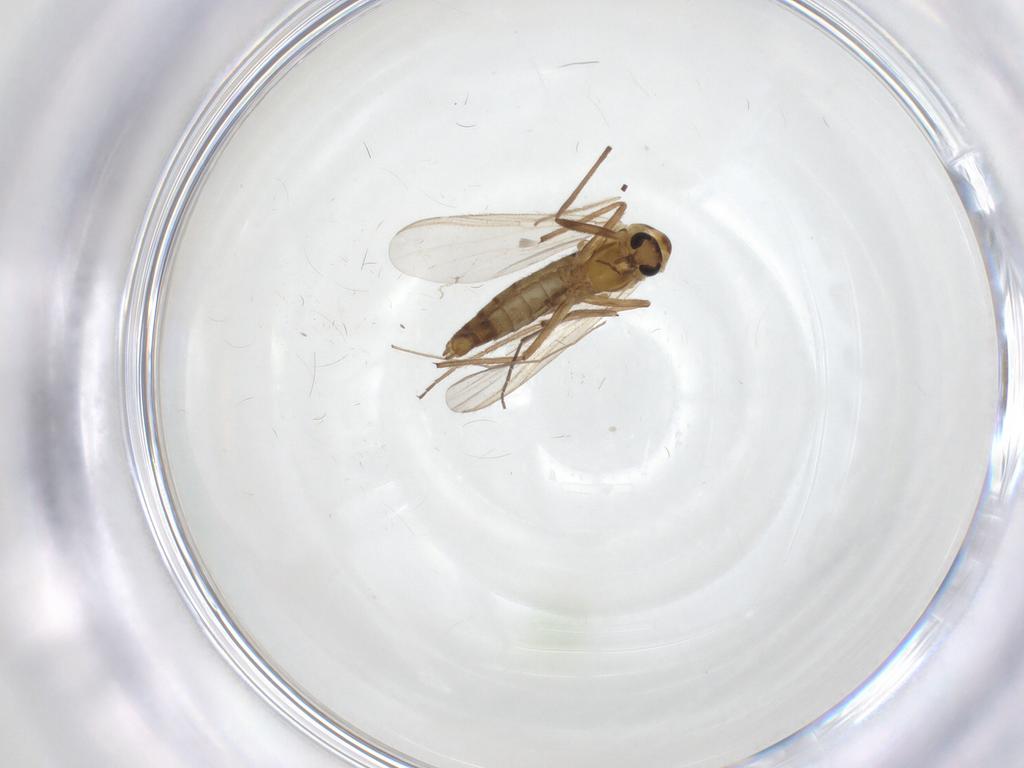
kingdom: Animalia
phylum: Arthropoda
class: Insecta
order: Diptera
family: Chironomidae
